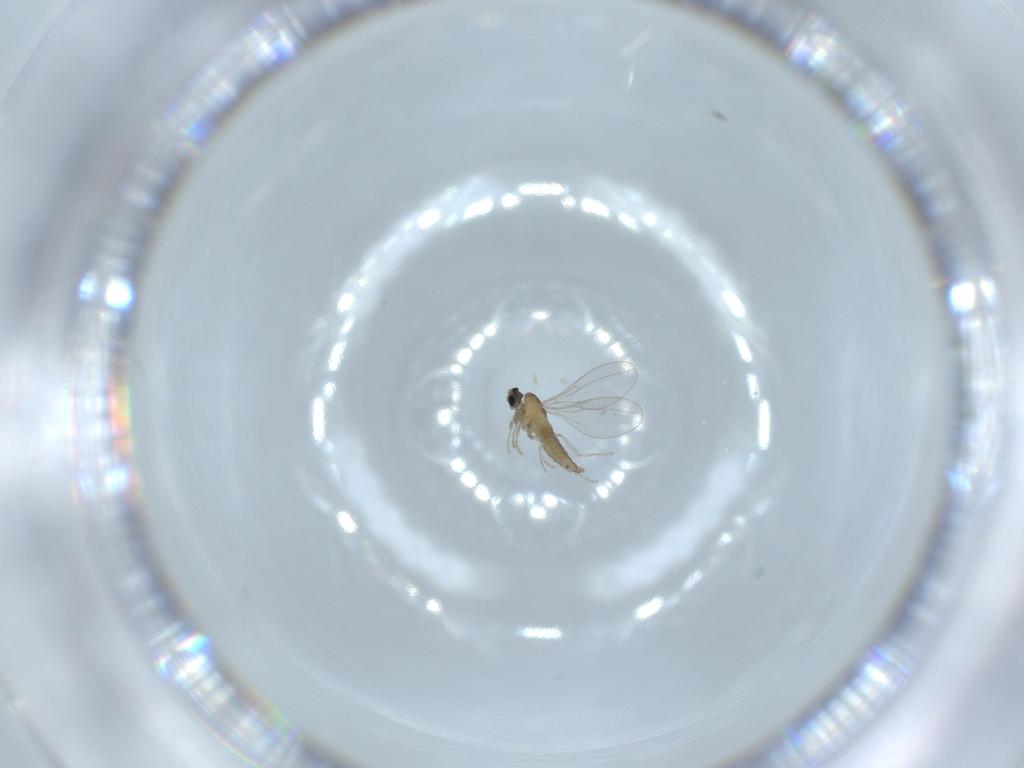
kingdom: Animalia
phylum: Arthropoda
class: Insecta
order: Diptera
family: Cecidomyiidae
